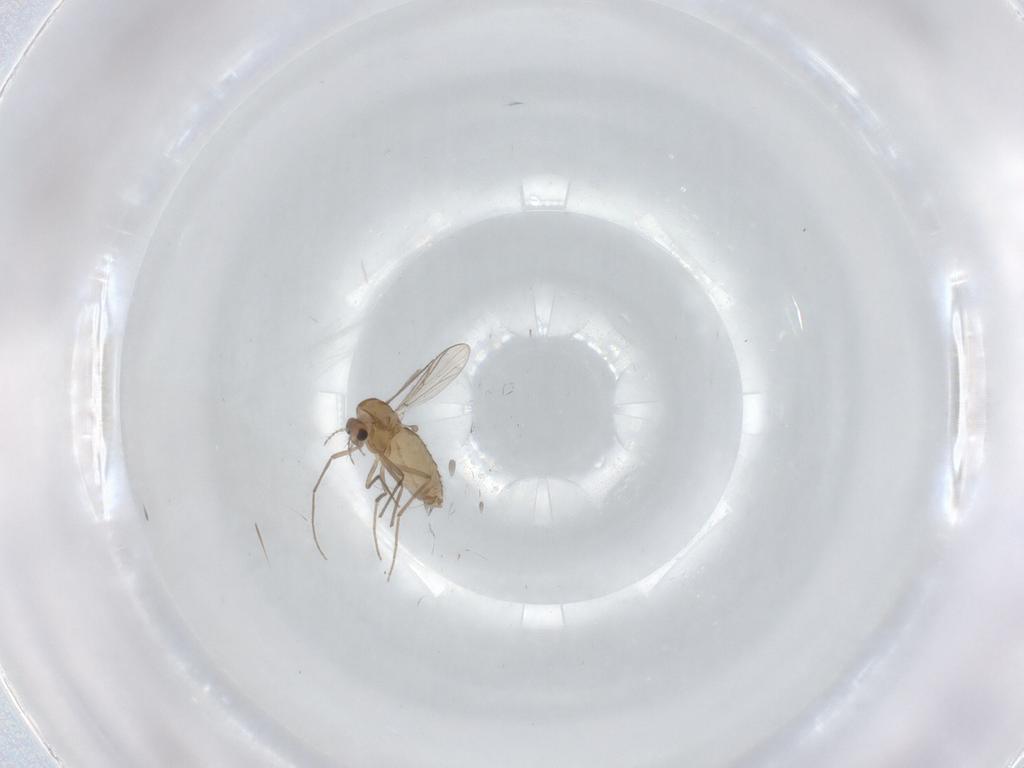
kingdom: Animalia
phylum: Arthropoda
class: Insecta
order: Diptera
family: Chironomidae
